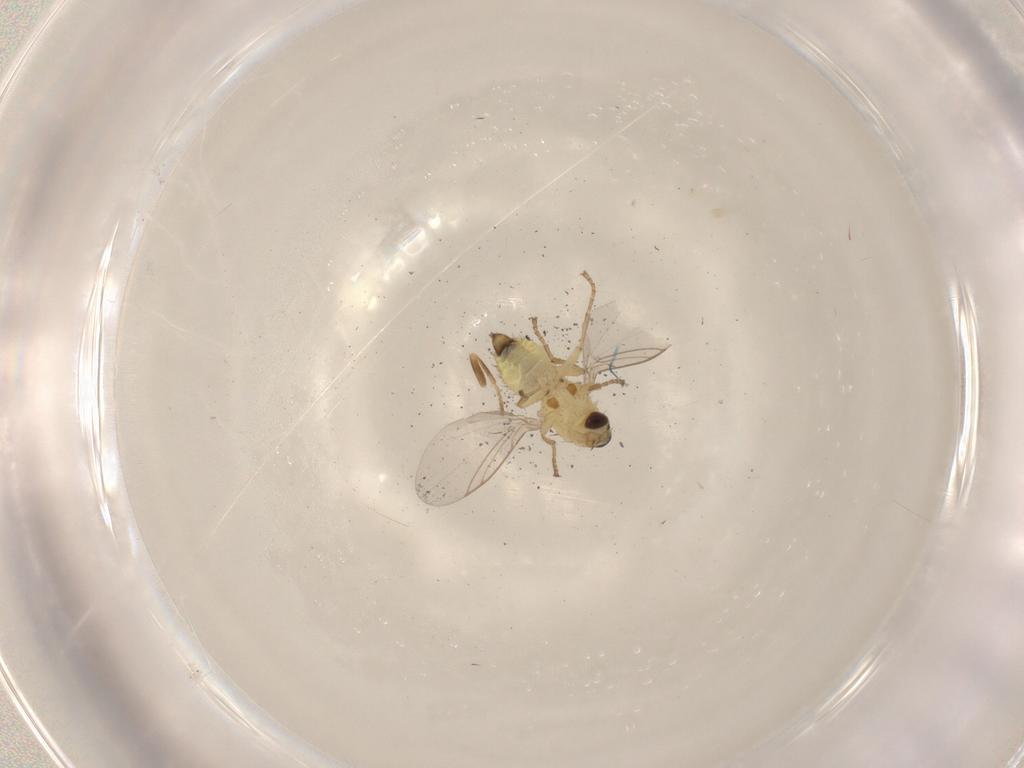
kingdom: Animalia
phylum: Arthropoda
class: Insecta
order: Diptera
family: Agromyzidae
